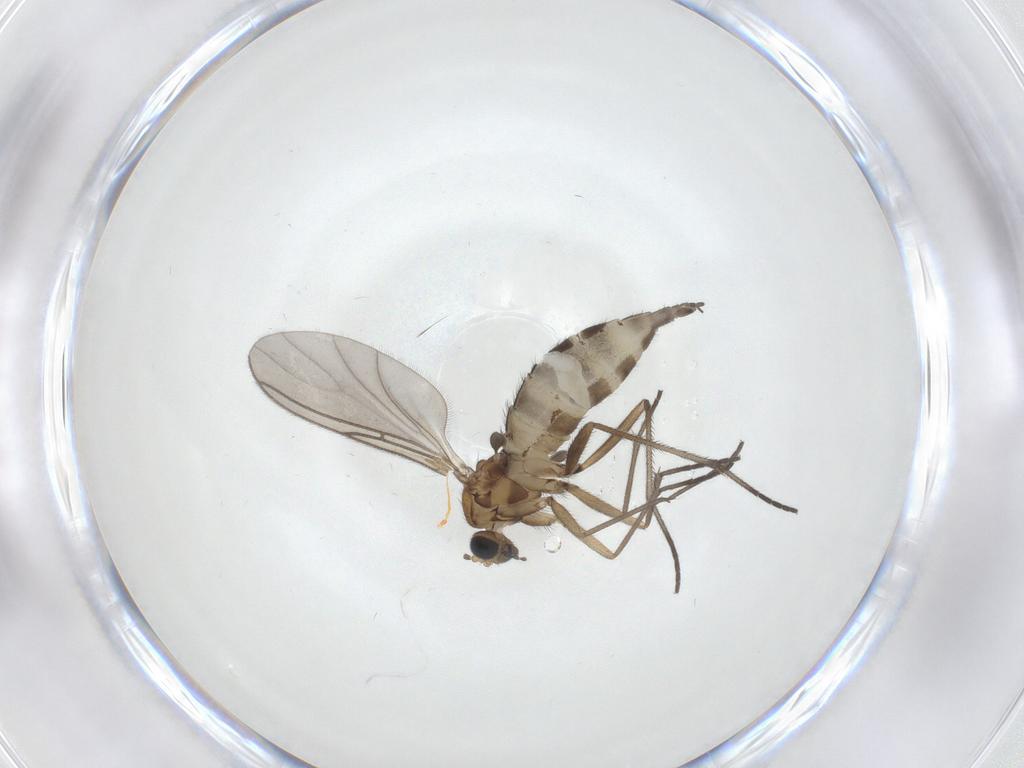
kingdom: Animalia
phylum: Arthropoda
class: Insecta
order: Diptera
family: Sciaridae
